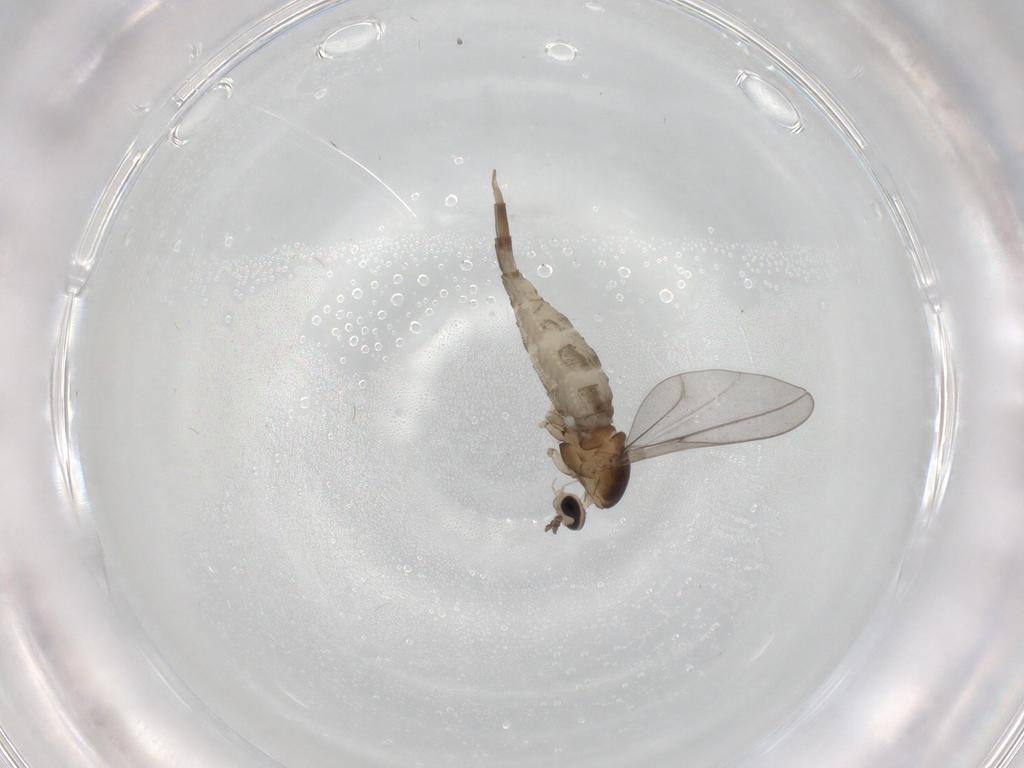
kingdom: Animalia
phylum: Arthropoda
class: Insecta
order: Diptera
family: Cecidomyiidae
